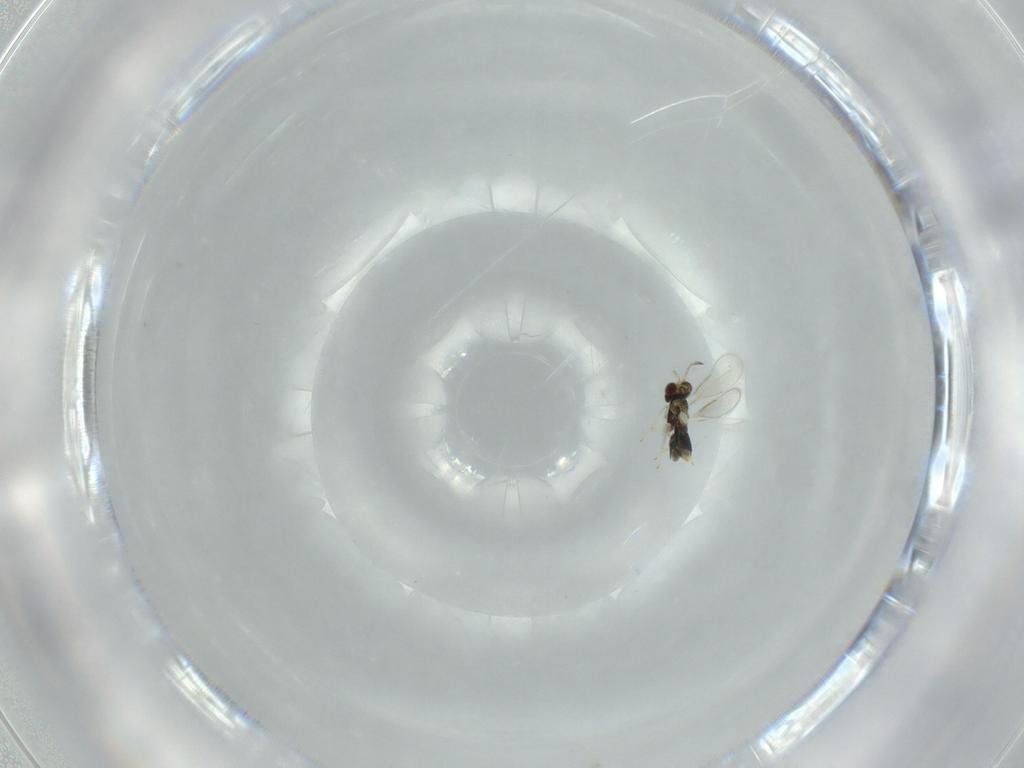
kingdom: Animalia
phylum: Arthropoda
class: Insecta
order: Hymenoptera
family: Aphelinidae
